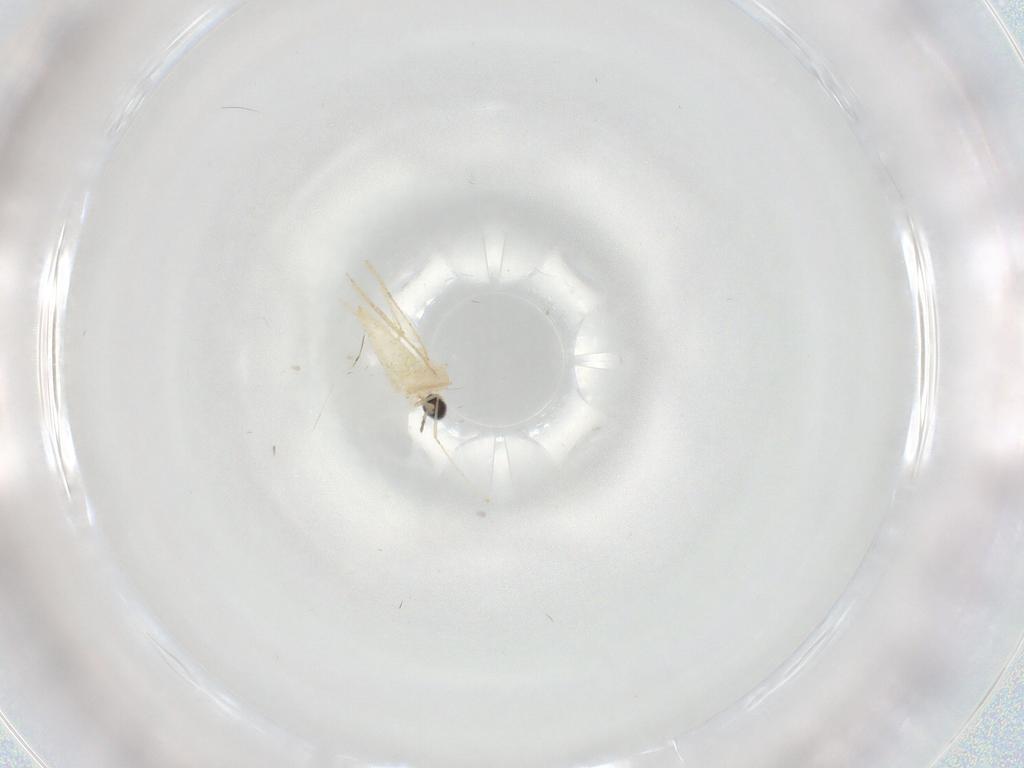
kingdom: Animalia
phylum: Arthropoda
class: Insecta
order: Diptera
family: Cecidomyiidae
